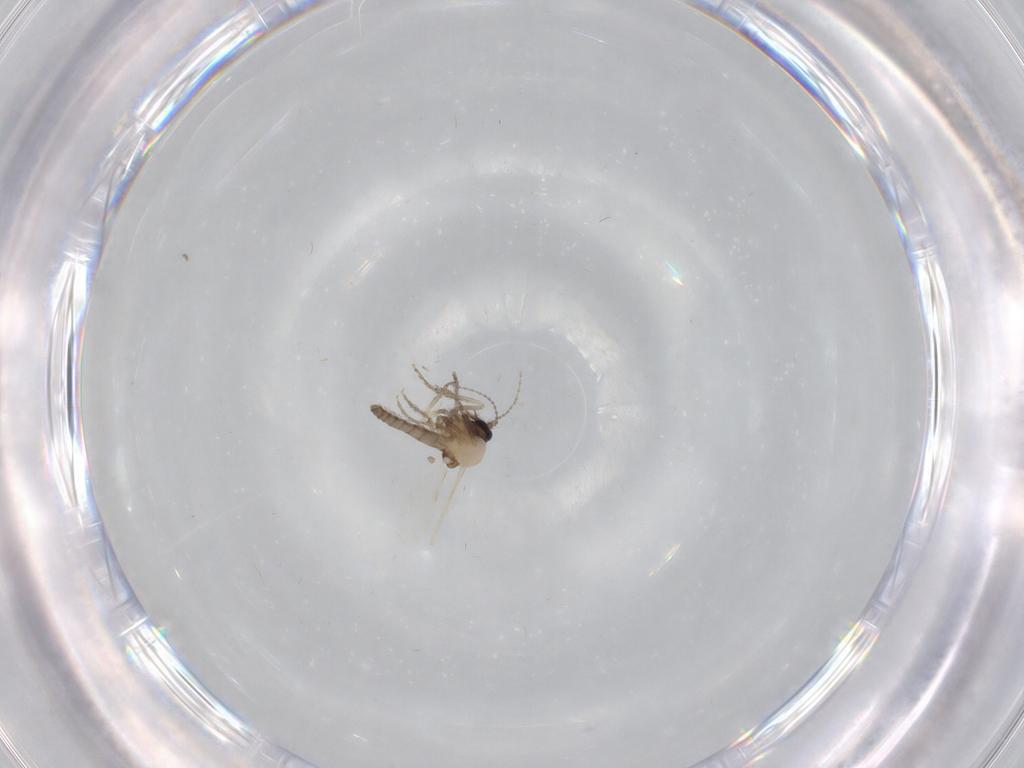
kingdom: Animalia
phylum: Arthropoda
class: Insecta
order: Diptera
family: Ceratopogonidae
